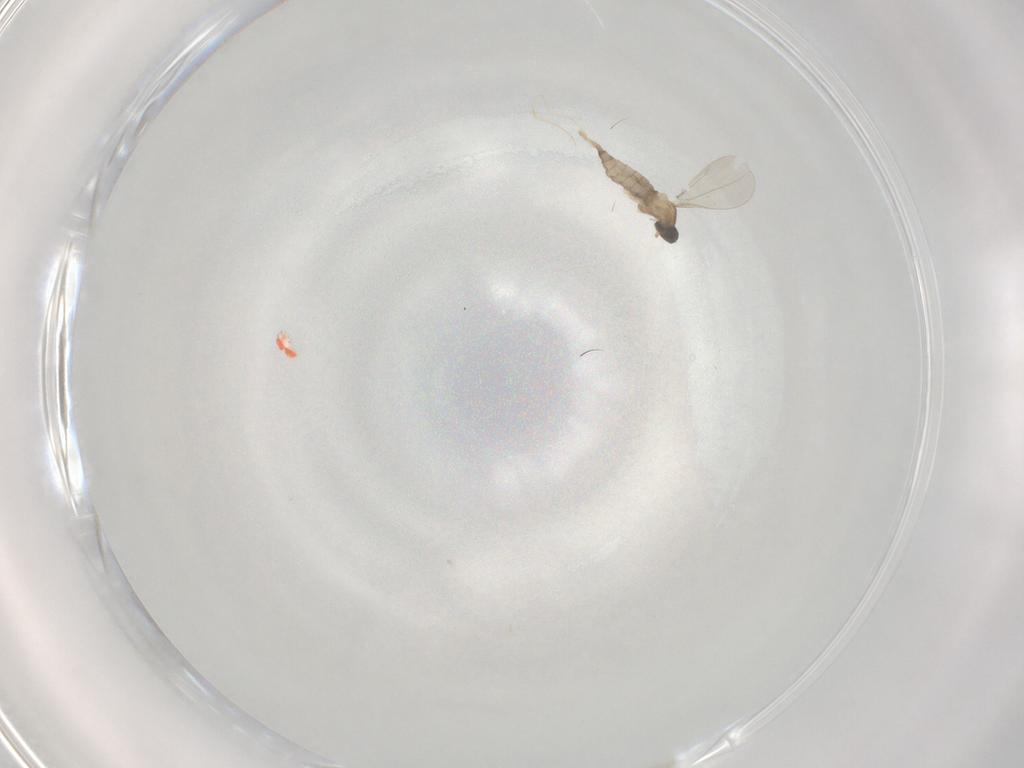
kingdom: Animalia
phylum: Arthropoda
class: Insecta
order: Diptera
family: Cecidomyiidae
